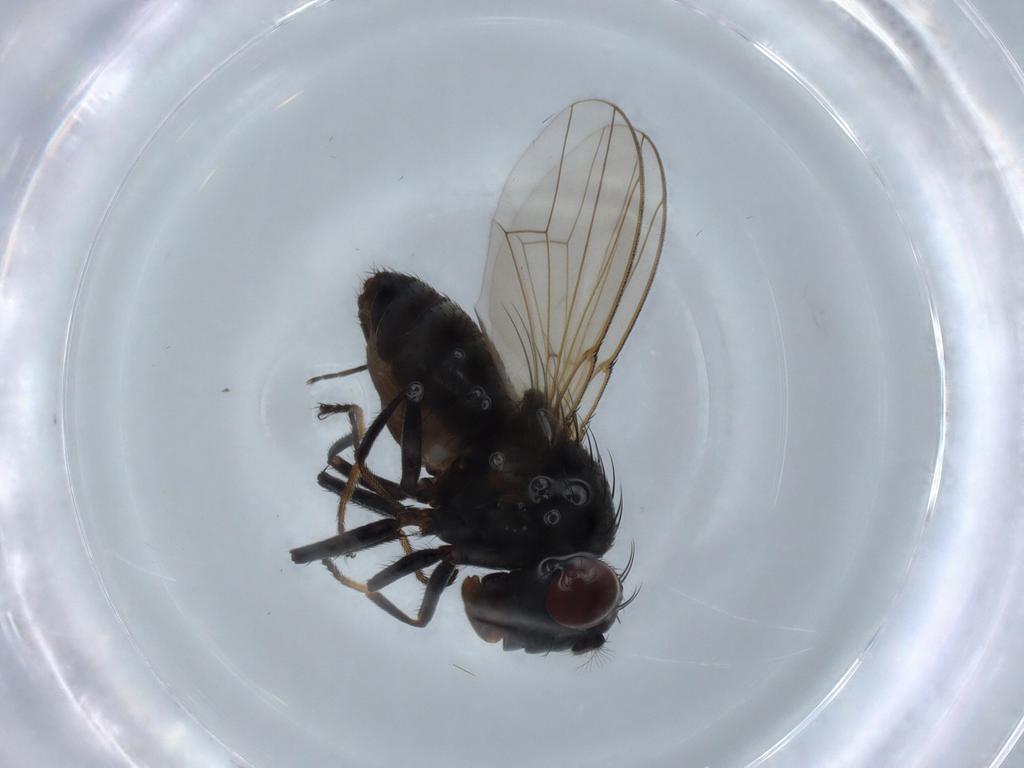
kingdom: Animalia
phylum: Arthropoda
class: Insecta
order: Diptera
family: Ephydridae
